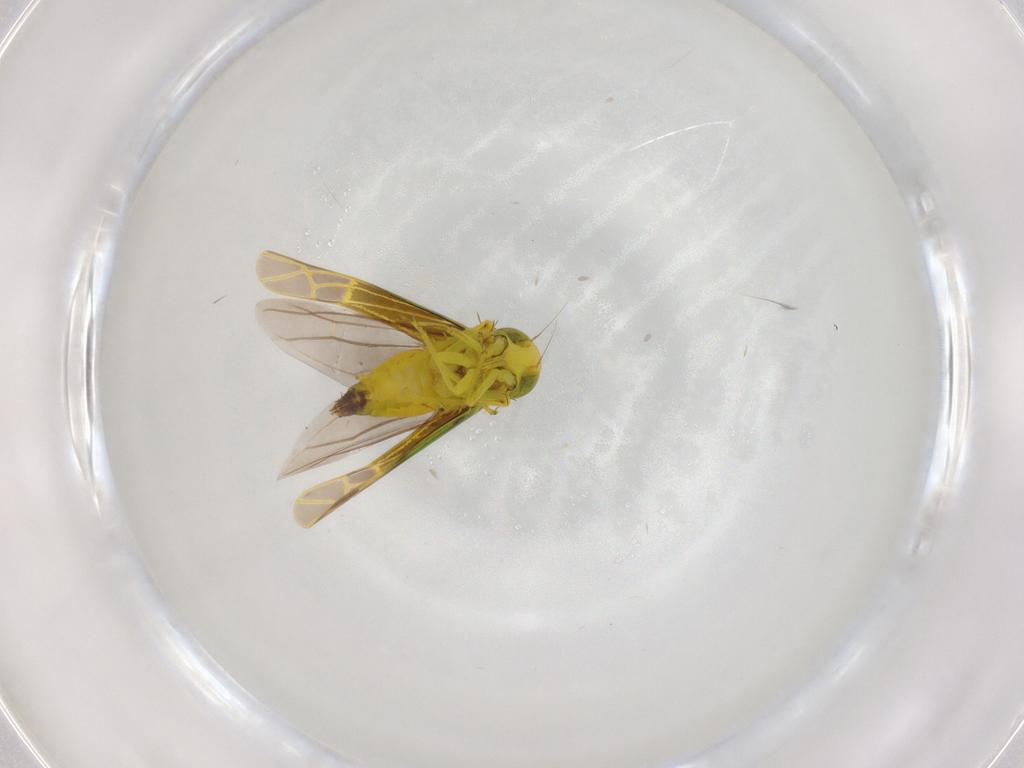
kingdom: Animalia
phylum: Arthropoda
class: Insecta
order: Hemiptera
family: Cicadellidae
